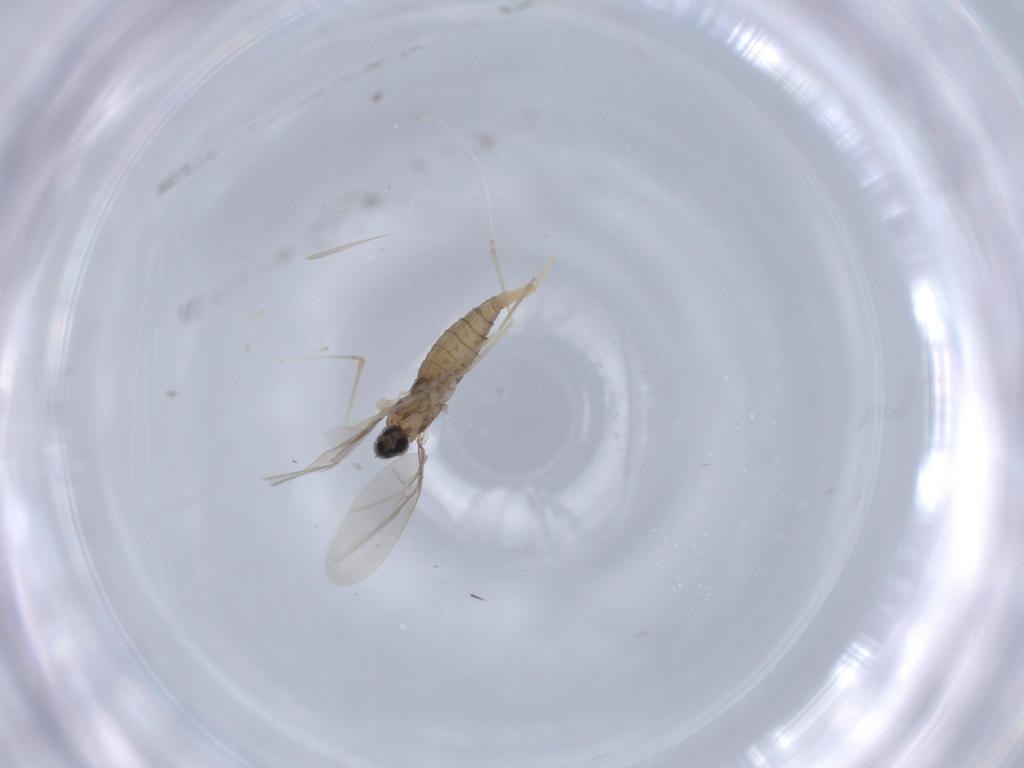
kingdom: Animalia
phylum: Arthropoda
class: Insecta
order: Diptera
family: Cecidomyiidae
